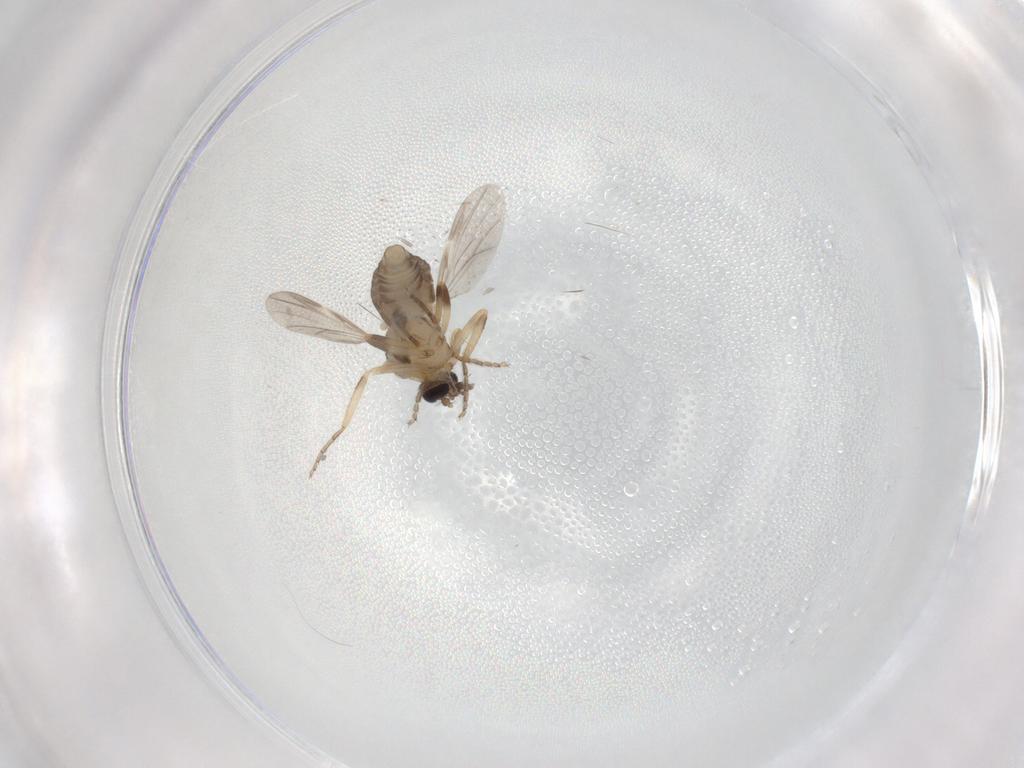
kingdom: Animalia
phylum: Arthropoda
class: Insecta
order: Diptera
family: Ceratopogonidae
